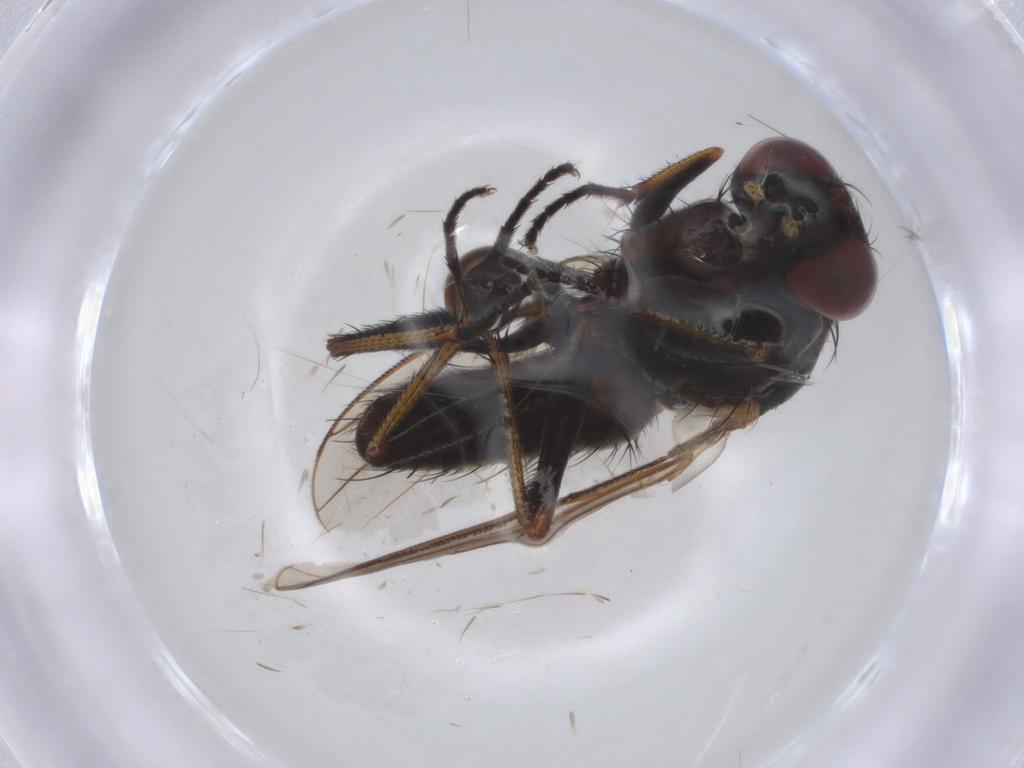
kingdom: Animalia
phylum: Arthropoda
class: Insecta
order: Diptera
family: Muscidae
